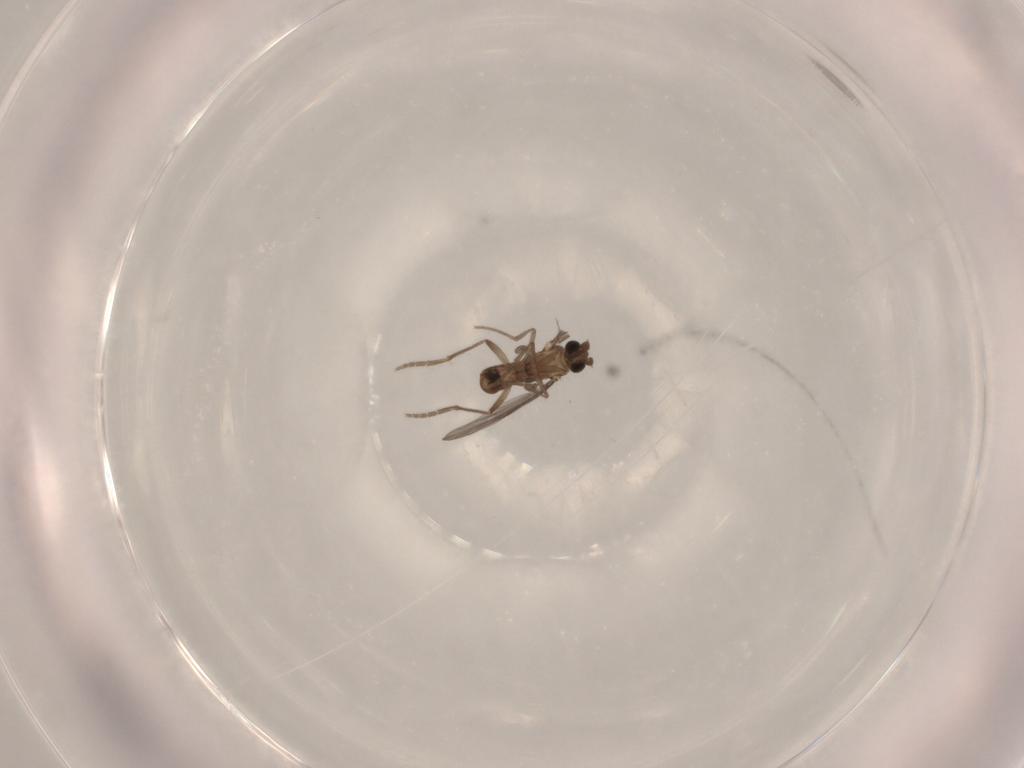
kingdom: Animalia
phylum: Arthropoda
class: Insecta
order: Diptera
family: Phoridae
